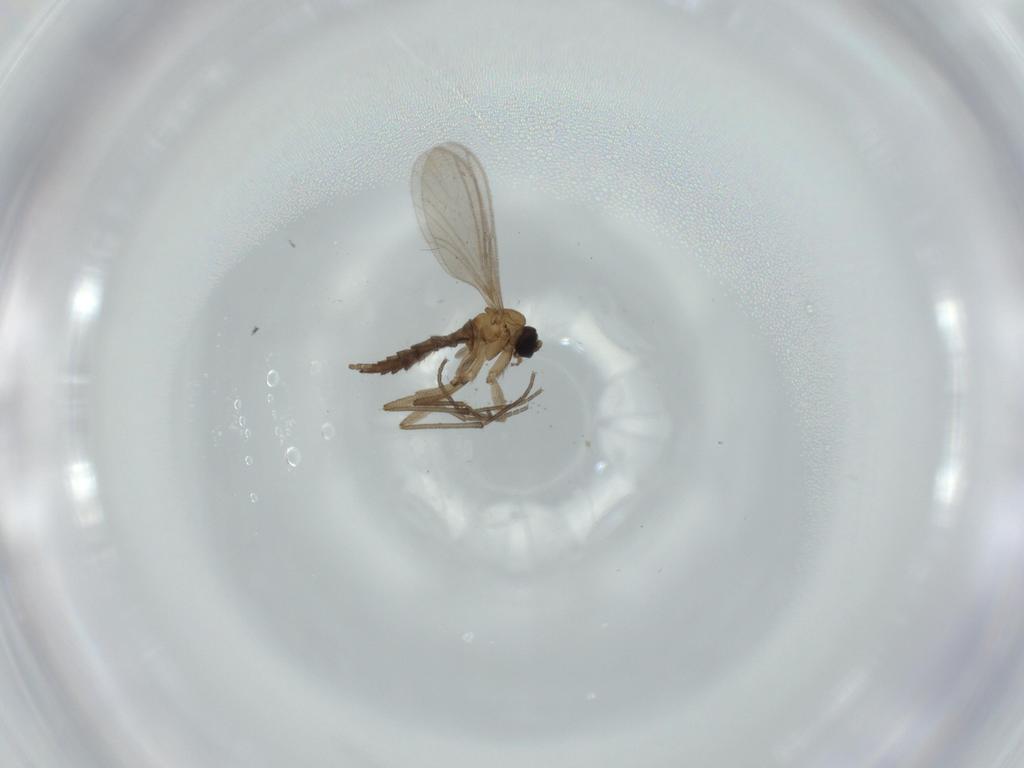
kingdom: Animalia
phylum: Arthropoda
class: Insecta
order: Diptera
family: Sciaridae
